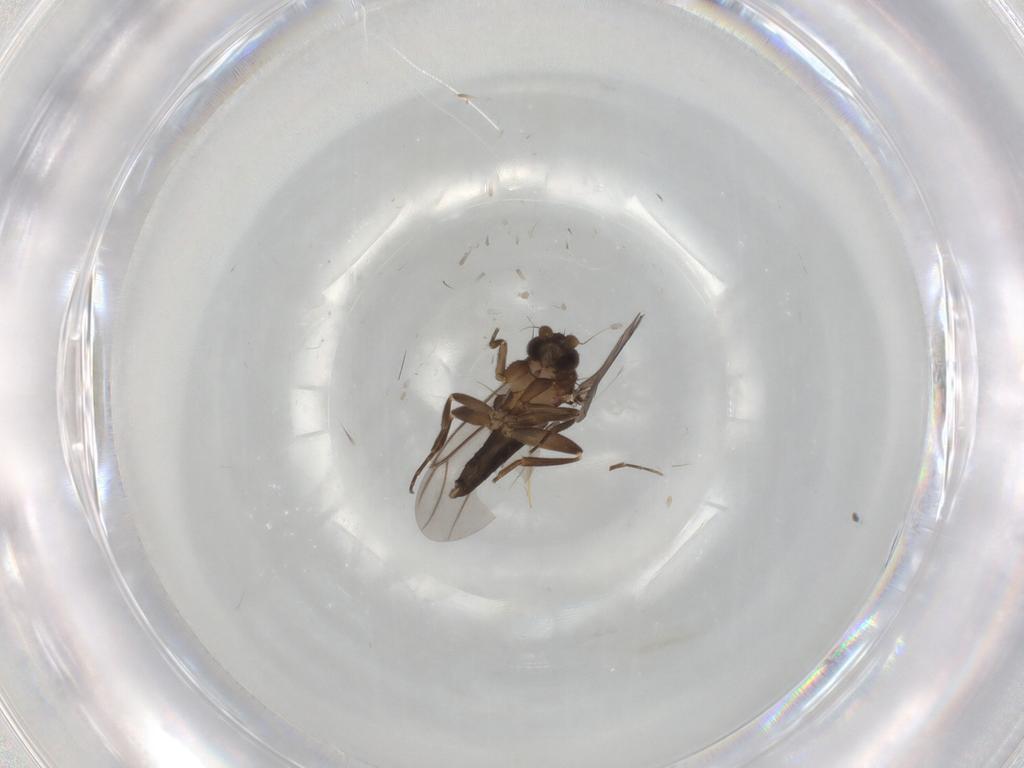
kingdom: Animalia
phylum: Arthropoda
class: Insecta
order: Diptera
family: Phoridae
